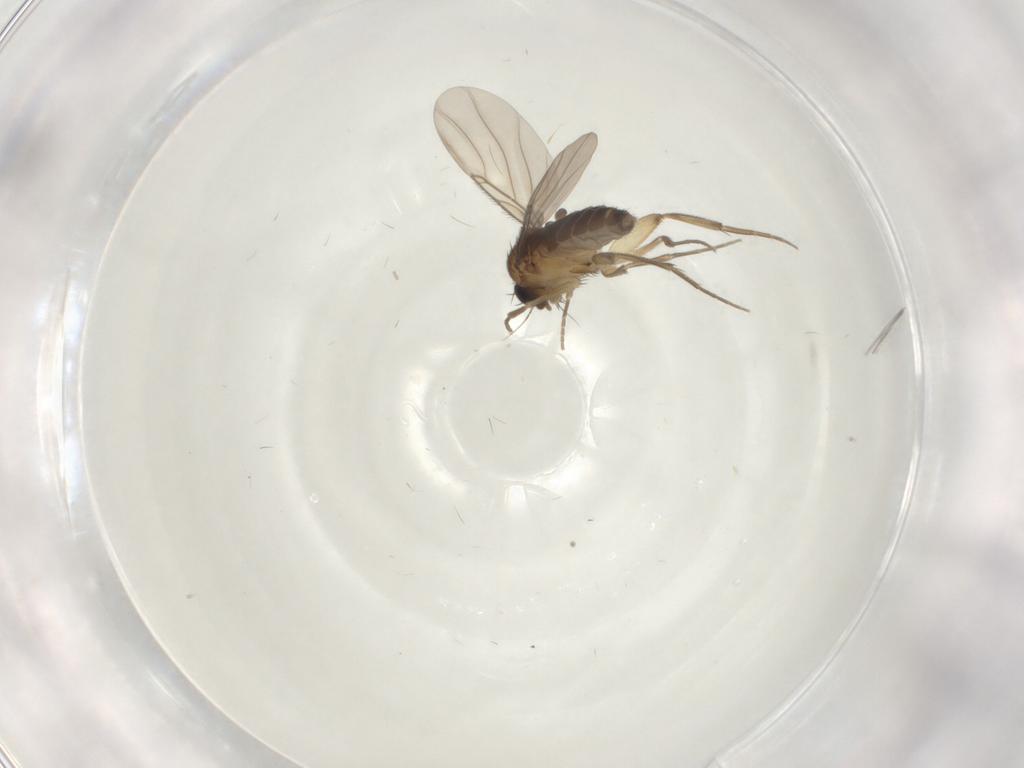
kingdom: Animalia
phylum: Arthropoda
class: Insecta
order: Diptera
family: Phoridae
